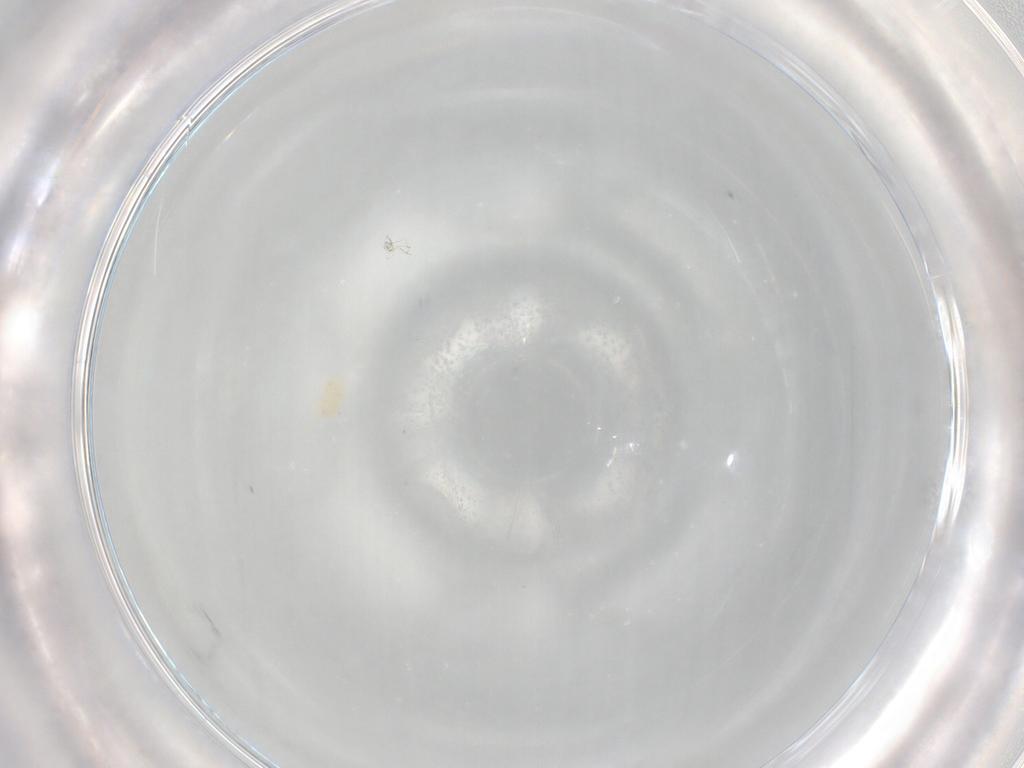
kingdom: Animalia
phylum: Arthropoda
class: Arachnida
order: Trombidiformes
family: Eupodidae
